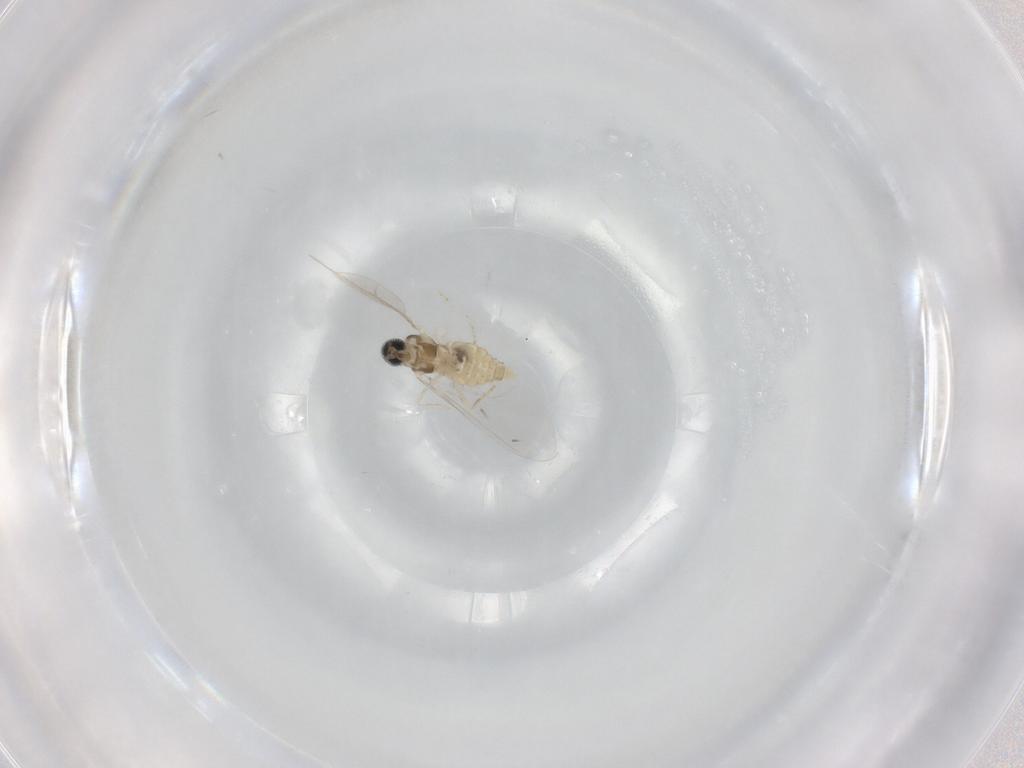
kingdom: Animalia
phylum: Arthropoda
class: Insecta
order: Diptera
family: Cecidomyiidae
